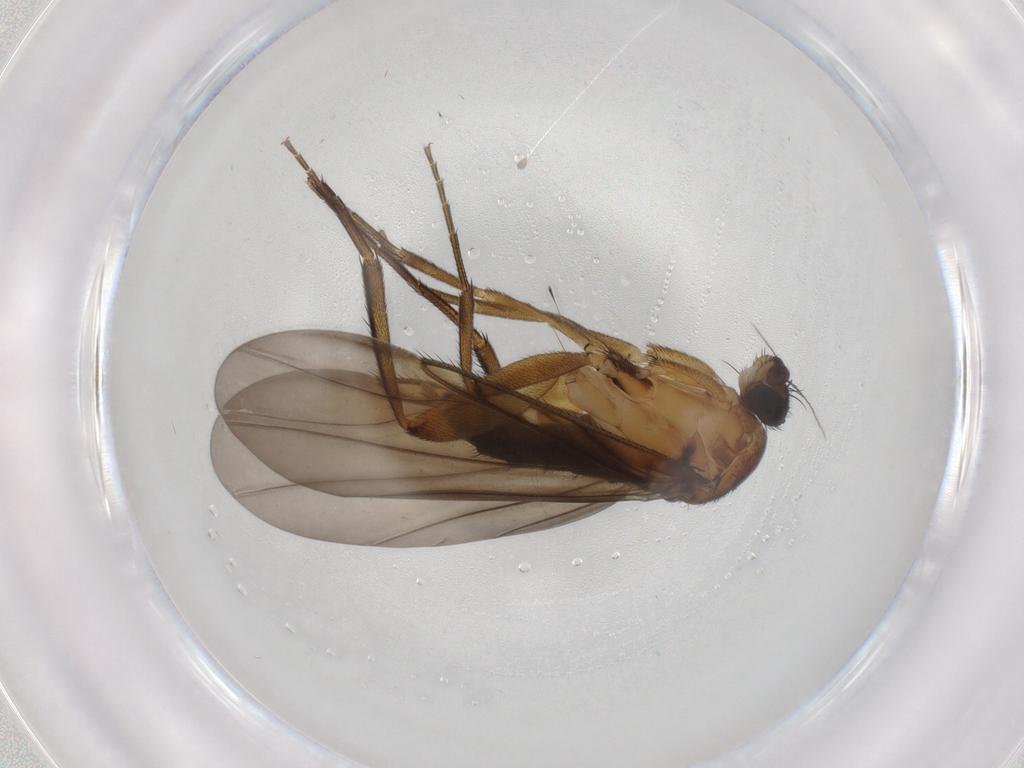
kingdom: Animalia
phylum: Arthropoda
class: Insecta
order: Diptera
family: Phoridae
